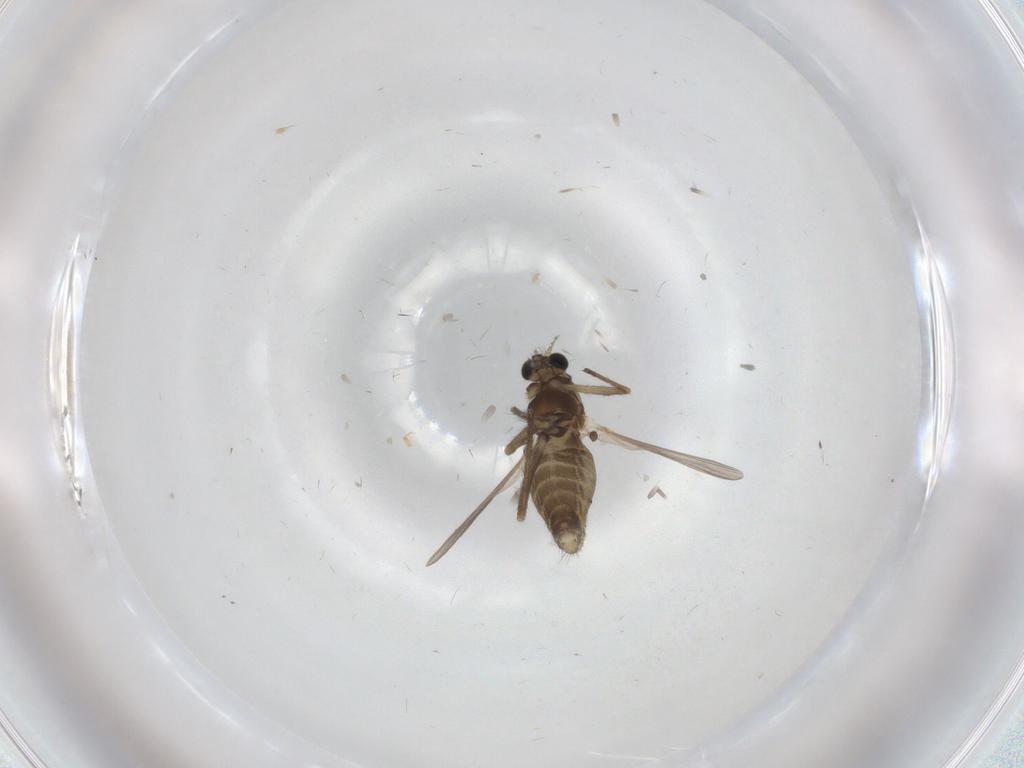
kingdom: Animalia
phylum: Arthropoda
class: Insecta
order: Diptera
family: Chironomidae
